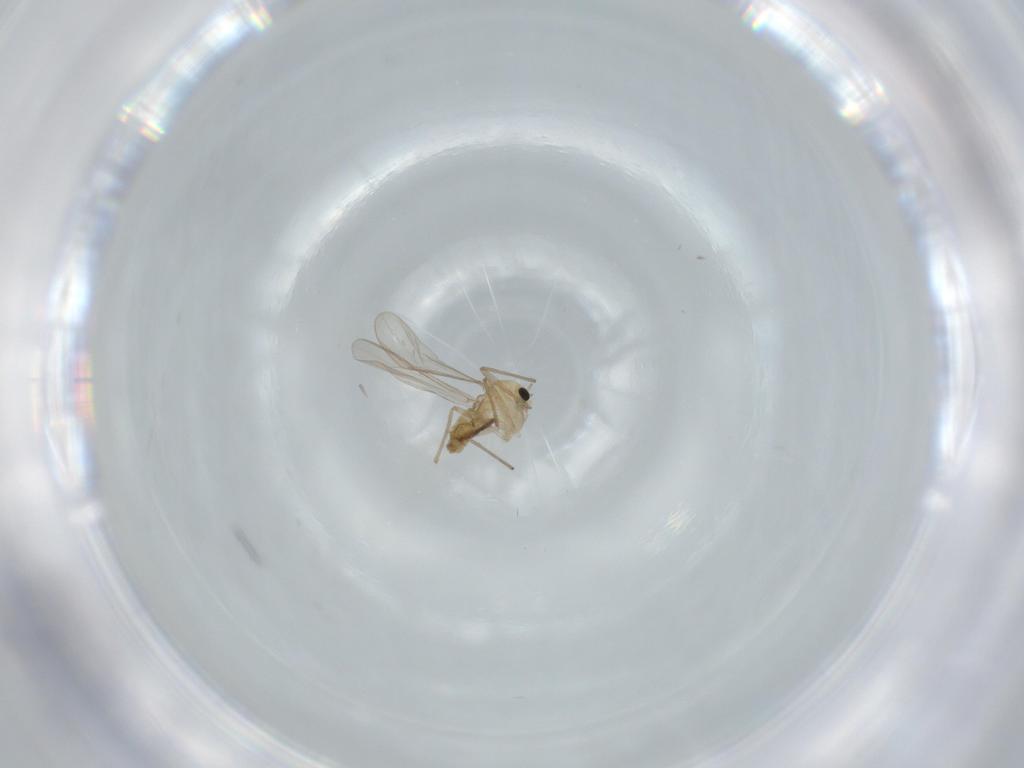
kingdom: Animalia
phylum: Arthropoda
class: Insecta
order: Diptera
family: Chironomidae
